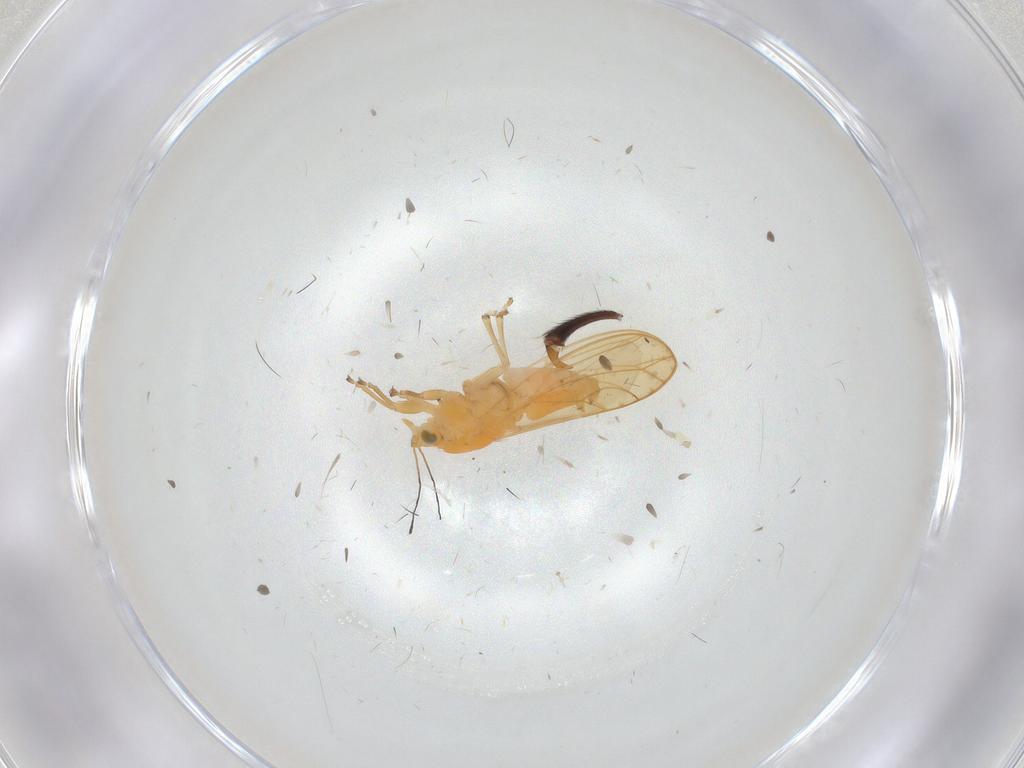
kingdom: Animalia
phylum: Arthropoda
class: Insecta
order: Hemiptera
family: Triozidae
